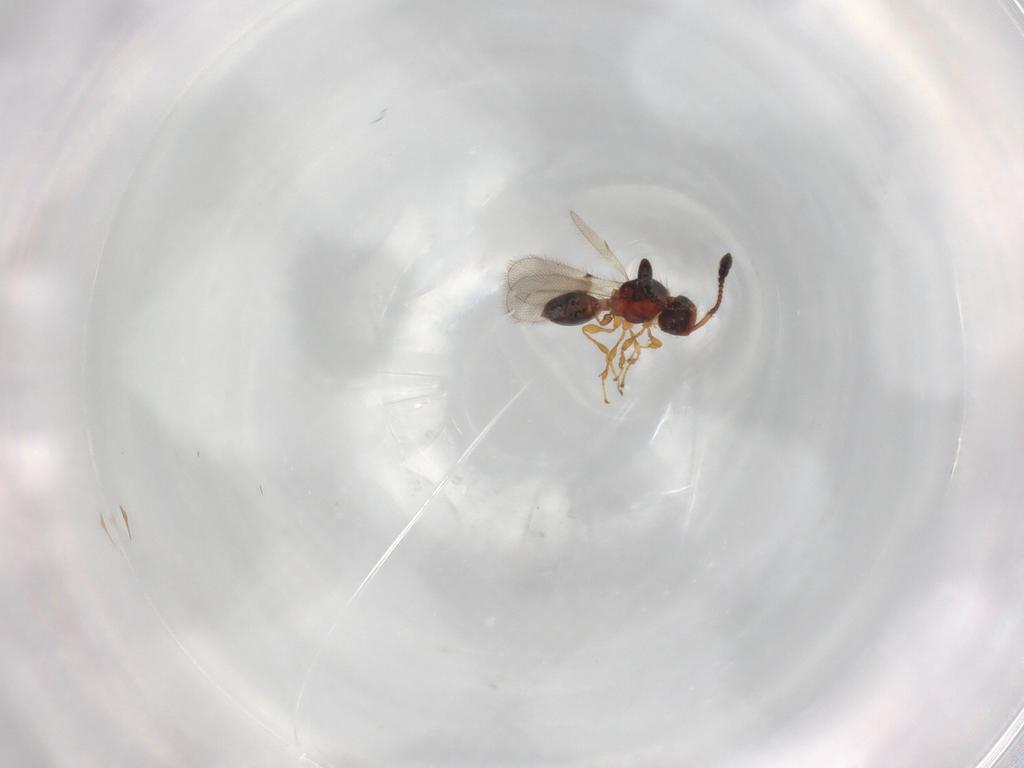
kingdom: Animalia
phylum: Arthropoda
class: Insecta
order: Hymenoptera
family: Diapriidae
